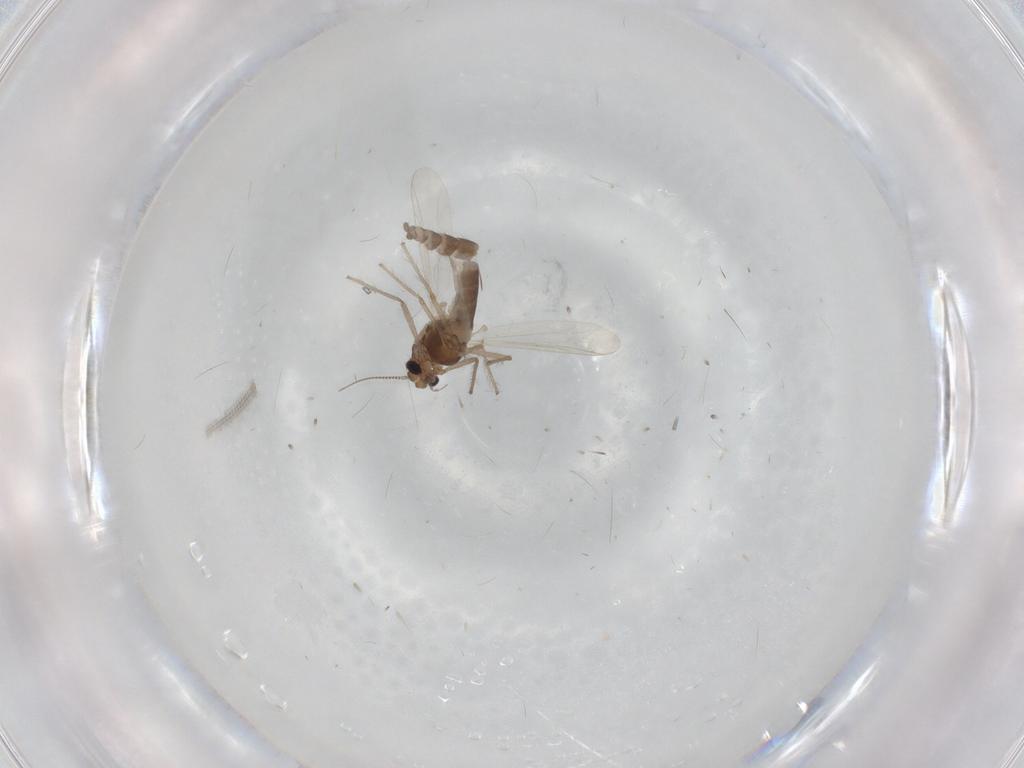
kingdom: Animalia
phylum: Arthropoda
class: Insecta
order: Diptera
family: Chironomidae
